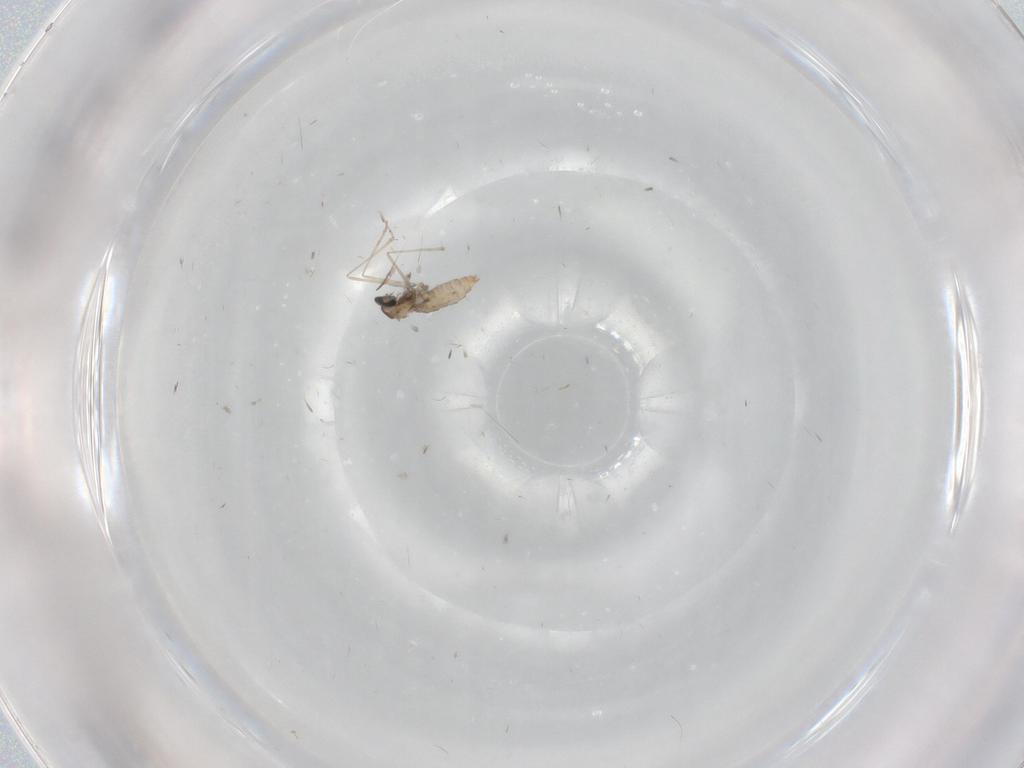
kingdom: Animalia
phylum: Arthropoda
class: Insecta
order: Diptera
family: Cecidomyiidae
